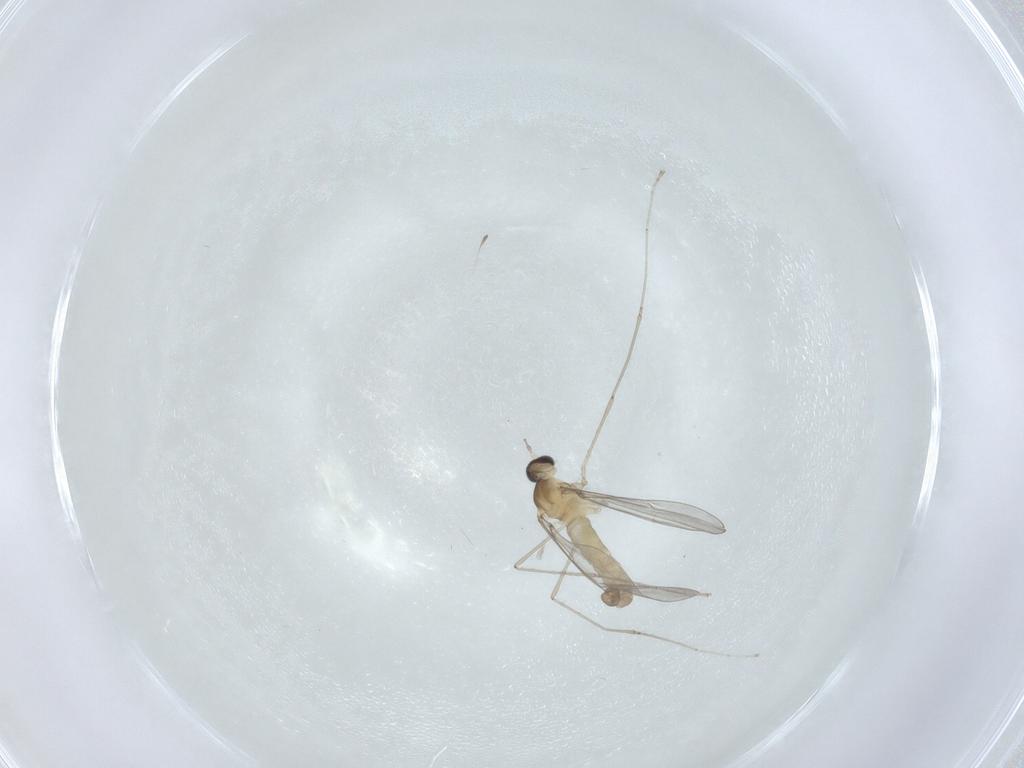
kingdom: Animalia
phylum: Arthropoda
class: Insecta
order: Diptera
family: Cecidomyiidae
